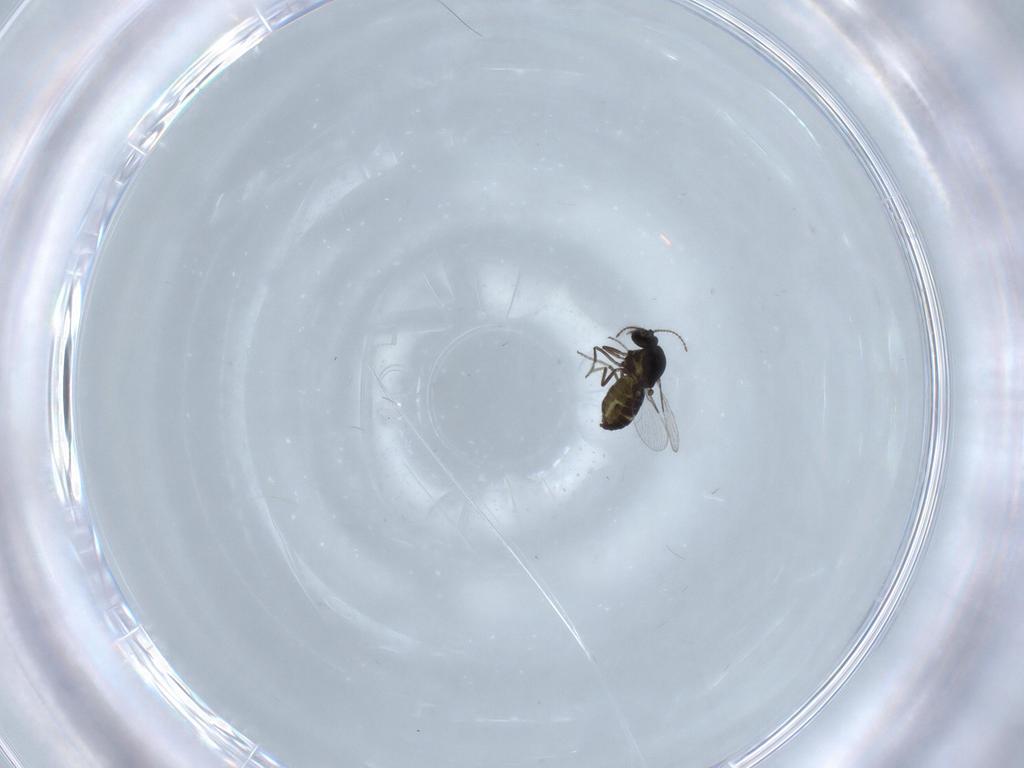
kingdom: Animalia
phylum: Arthropoda
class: Insecta
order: Diptera
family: Ceratopogonidae
